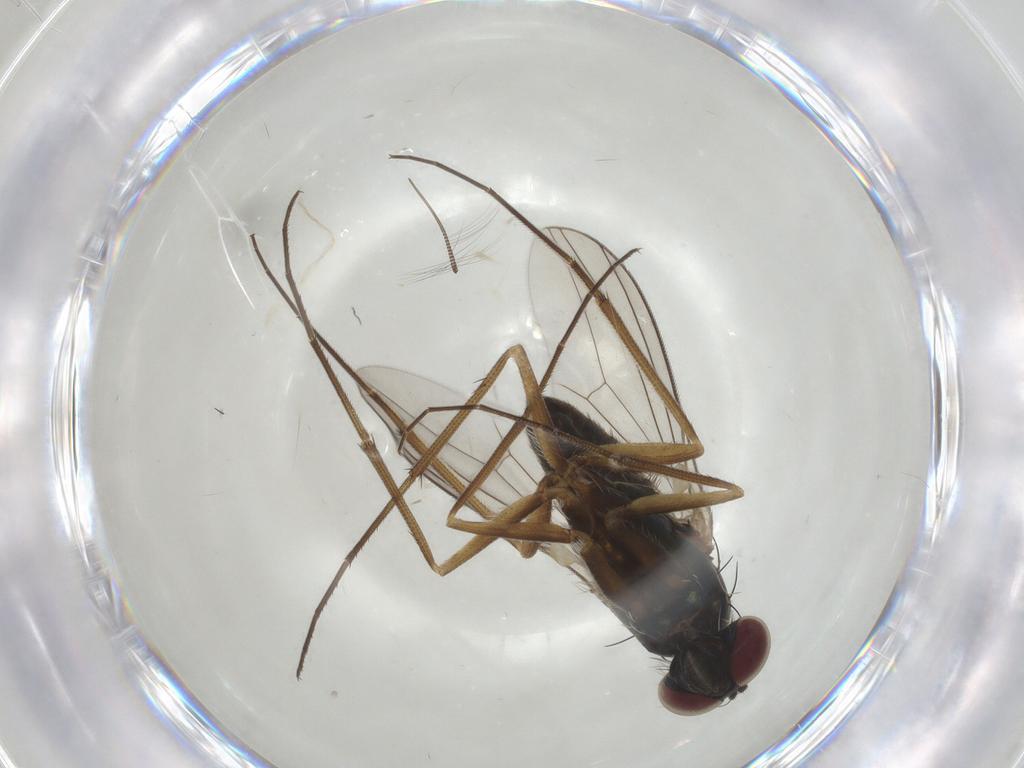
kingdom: Animalia
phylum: Arthropoda
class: Insecta
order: Diptera
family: Dolichopodidae
